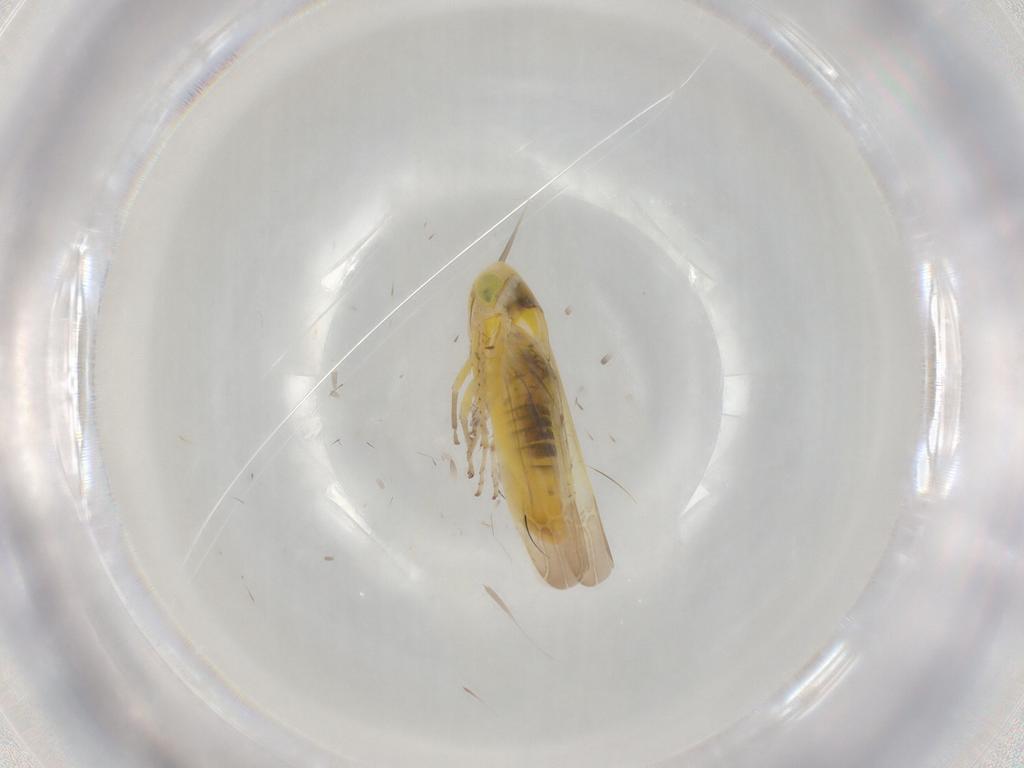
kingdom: Animalia
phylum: Arthropoda
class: Insecta
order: Hemiptera
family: Cicadellidae
